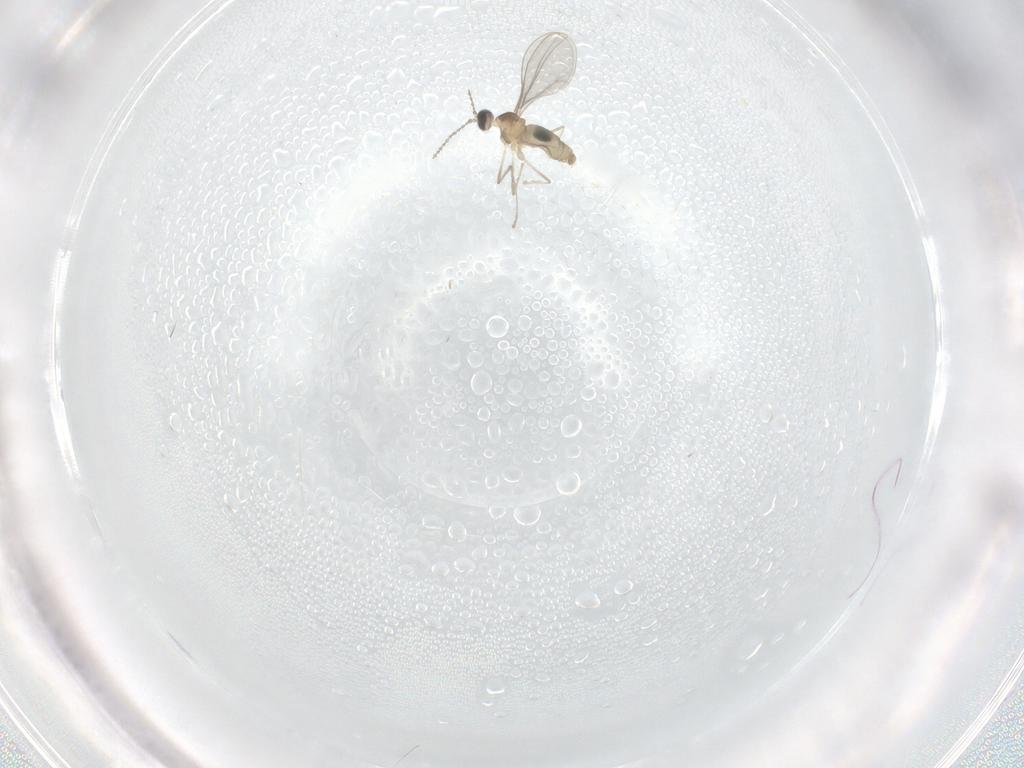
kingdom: Animalia
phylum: Arthropoda
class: Insecta
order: Diptera
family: Cecidomyiidae
